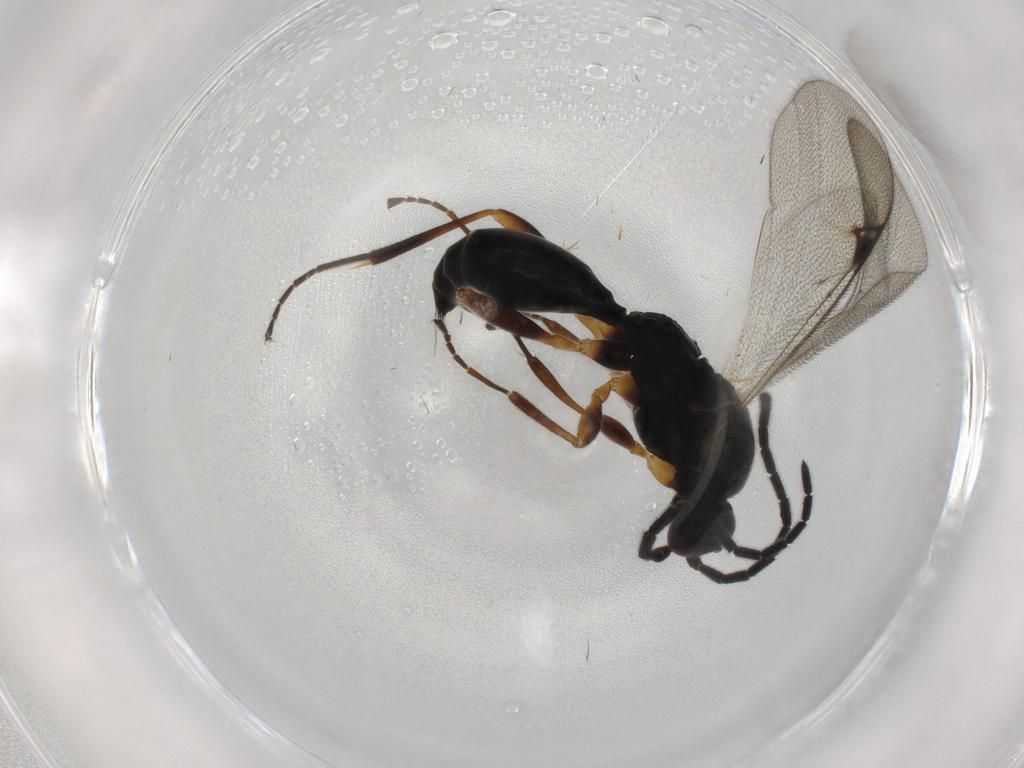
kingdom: Animalia
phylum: Arthropoda
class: Insecta
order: Hymenoptera
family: Proctotrupidae
